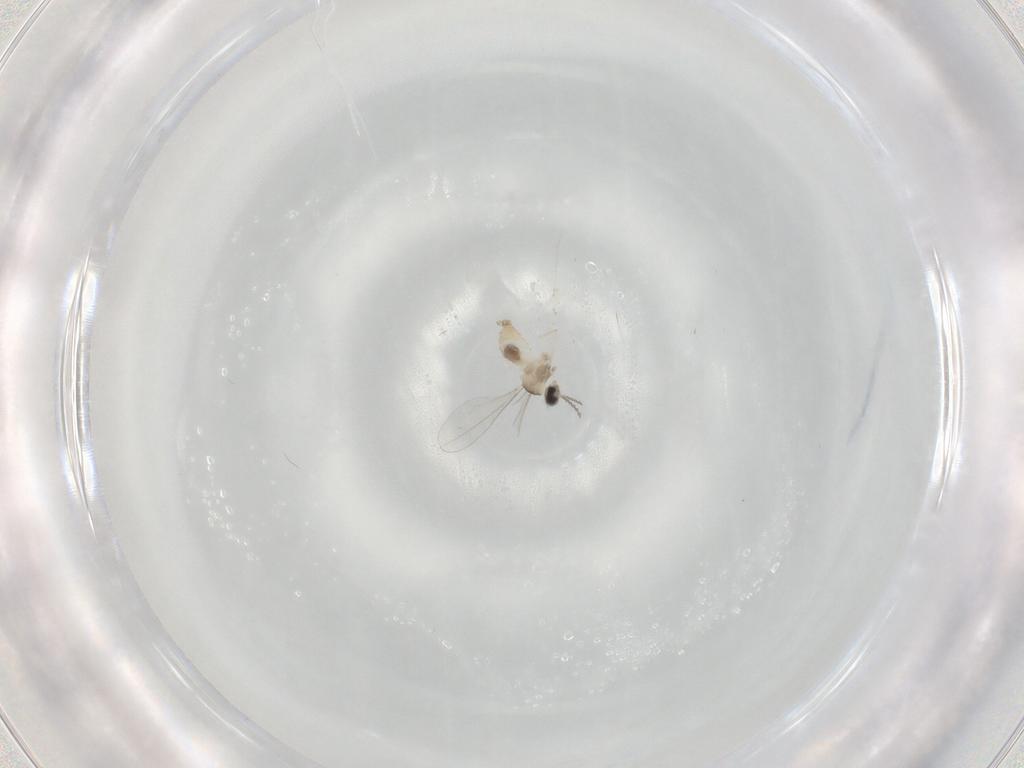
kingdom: Animalia
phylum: Arthropoda
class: Insecta
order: Diptera
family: Cecidomyiidae
